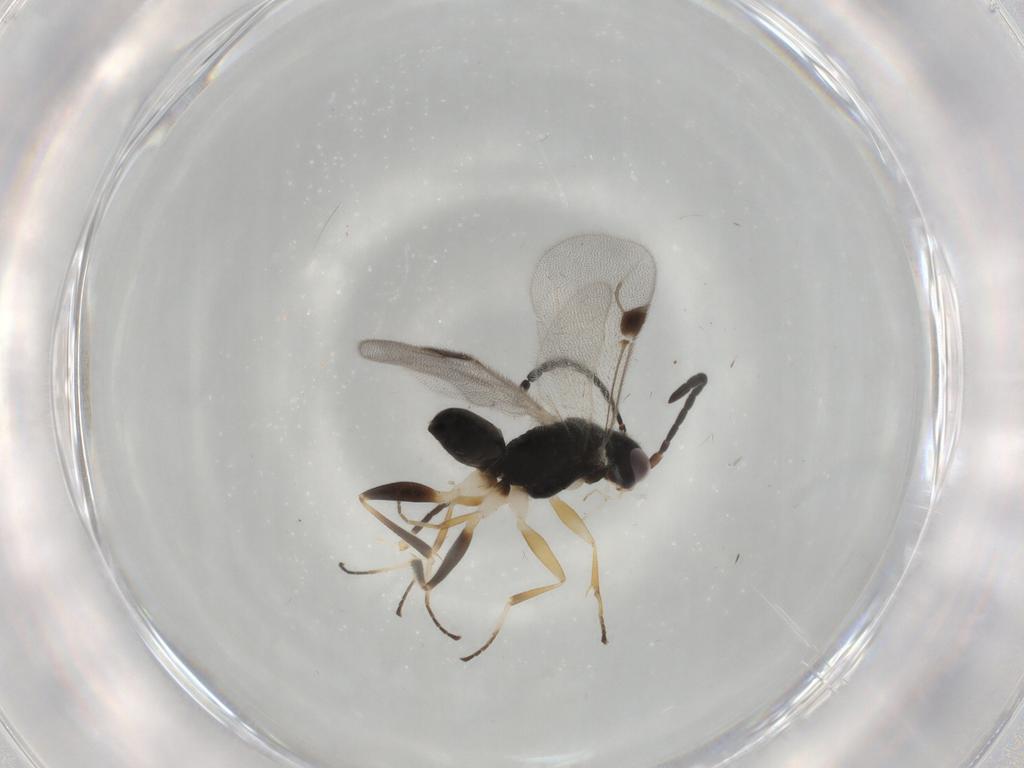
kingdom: Animalia
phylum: Arthropoda
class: Insecta
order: Hymenoptera
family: Dryinidae
